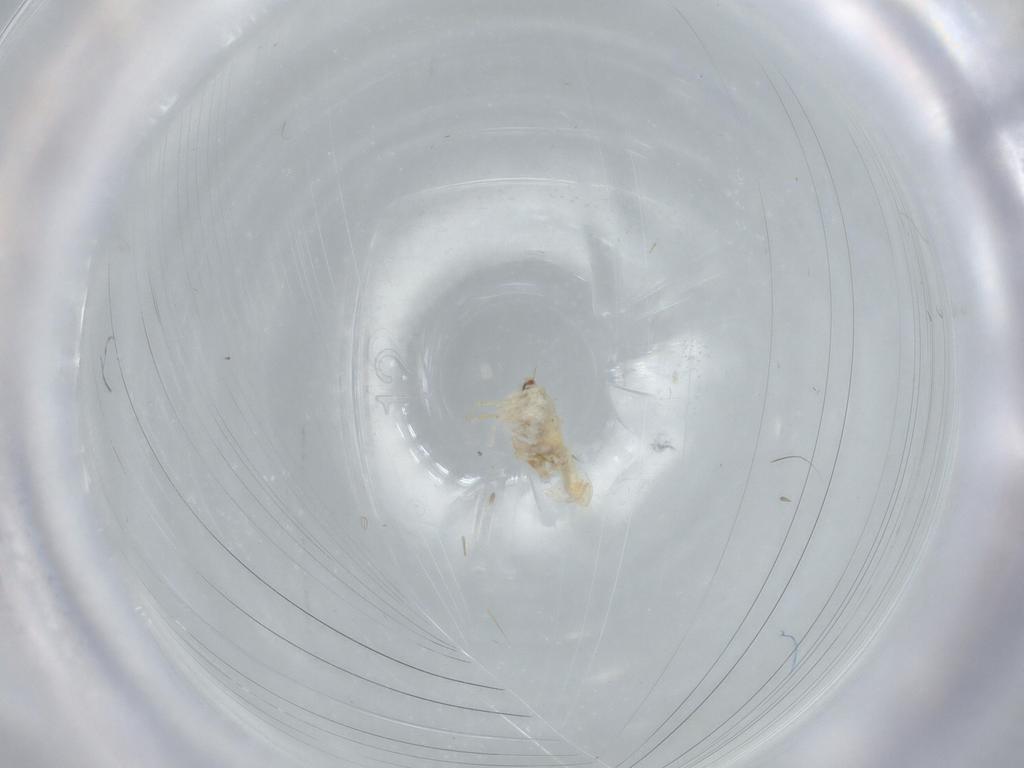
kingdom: Animalia
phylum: Arthropoda
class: Insecta
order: Hemiptera
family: Aleyrodidae
